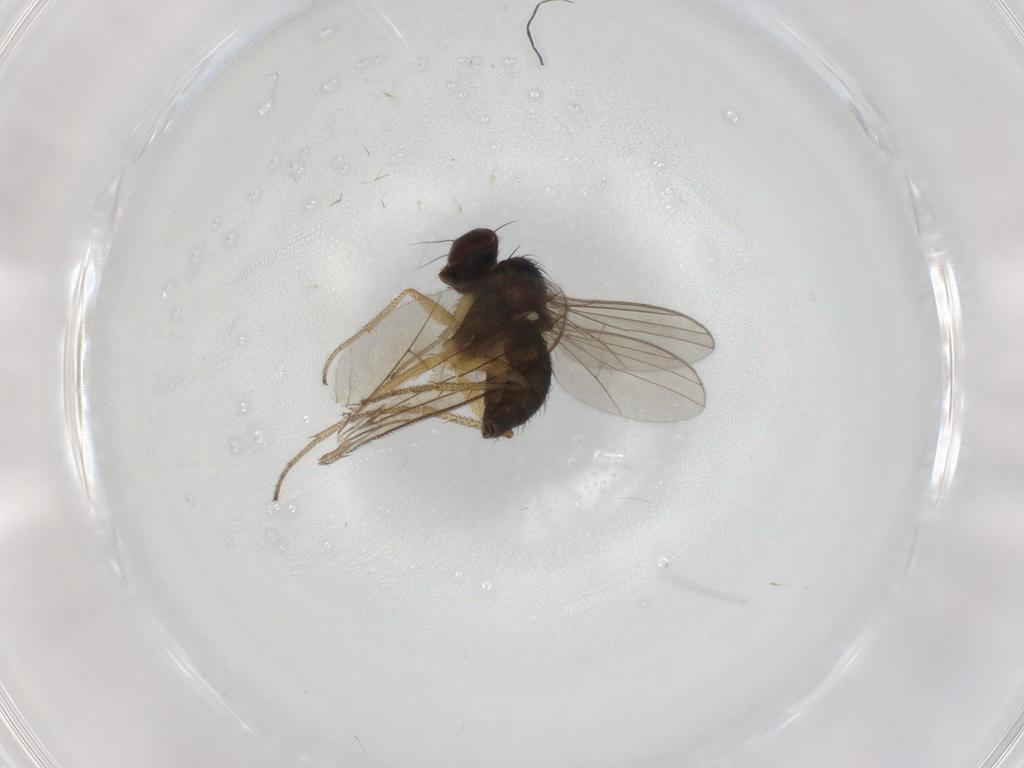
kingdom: Animalia
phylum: Arthropoda
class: Insecta
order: Diptera
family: Dolichopodidae
